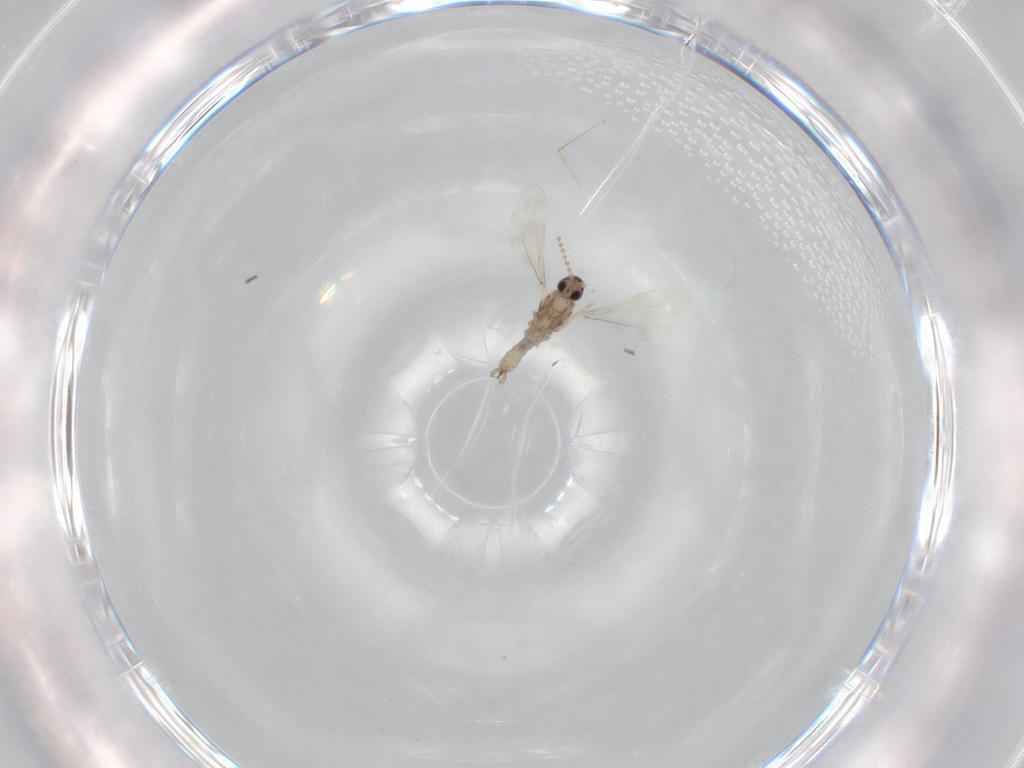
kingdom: Animalia
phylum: Arthropoda
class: Insecta
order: Diptera
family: Cecidomyiidae
